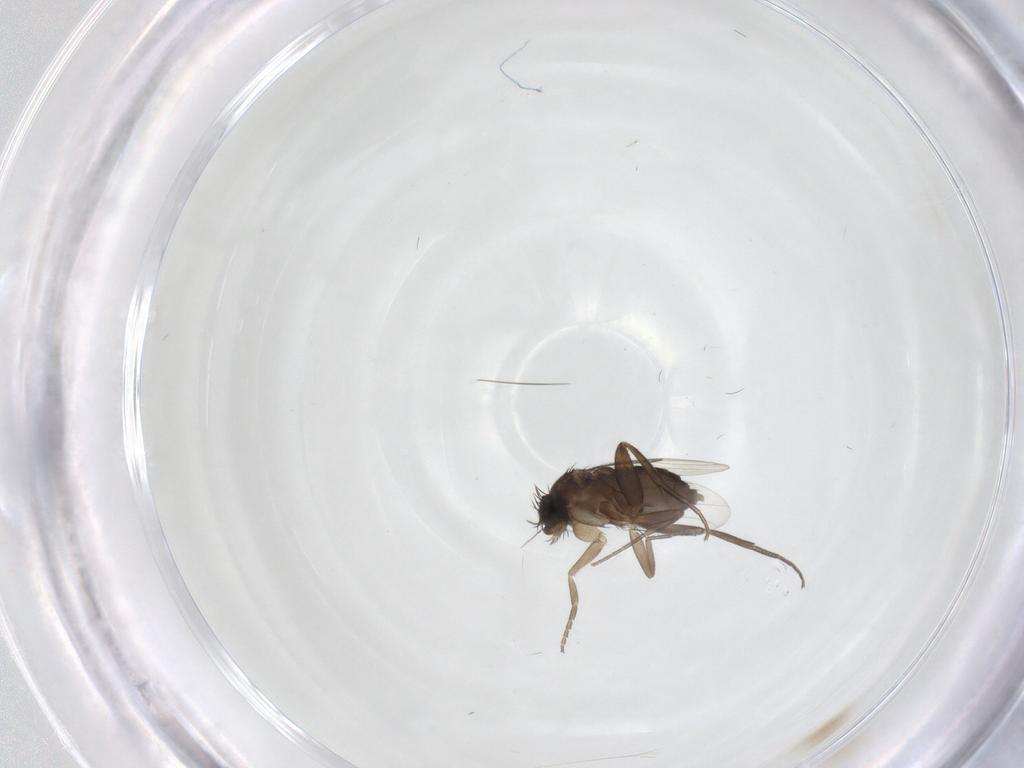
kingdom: Animalia
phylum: Arthropoda
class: Insecta
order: Diptera
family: Phoridae
